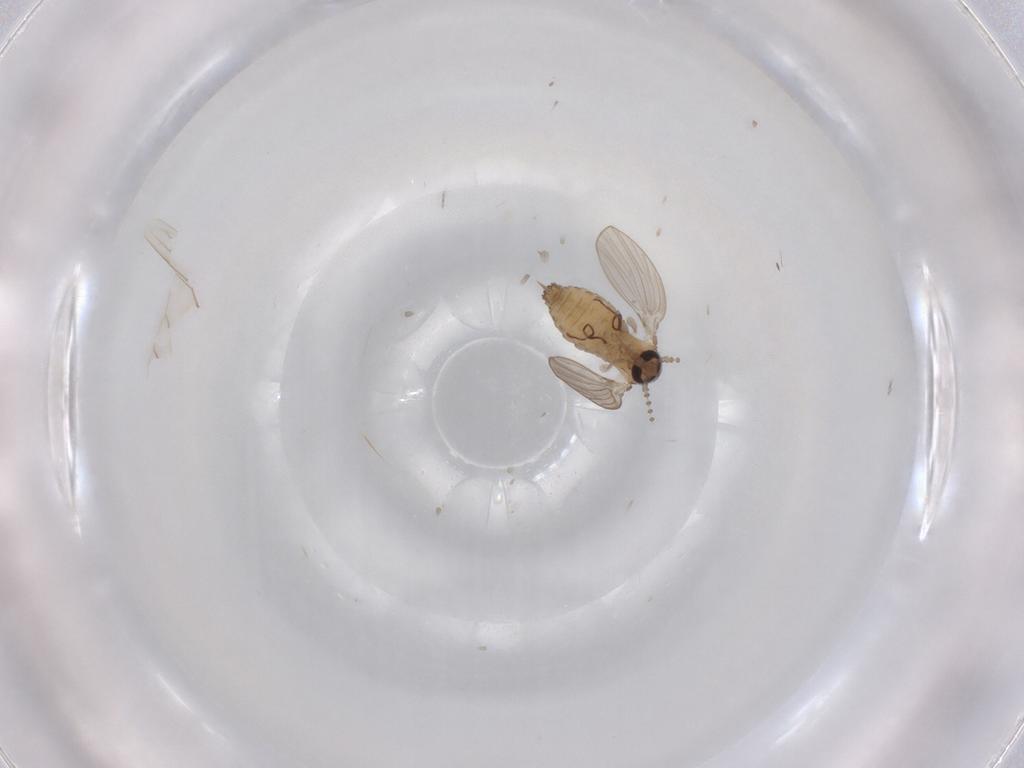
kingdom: Animalia
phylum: Arthropoda
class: Insecta
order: Diptera
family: Psychodidae
